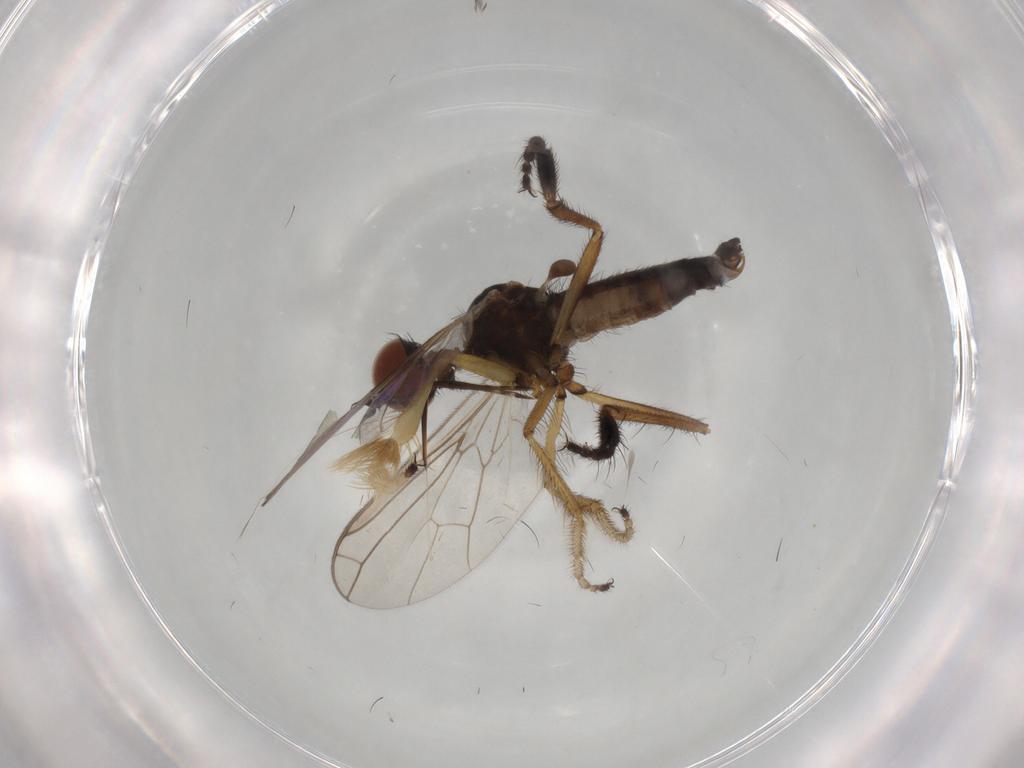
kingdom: Animalia
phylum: Arthropoda
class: Insecta
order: Diptera
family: Empididae
